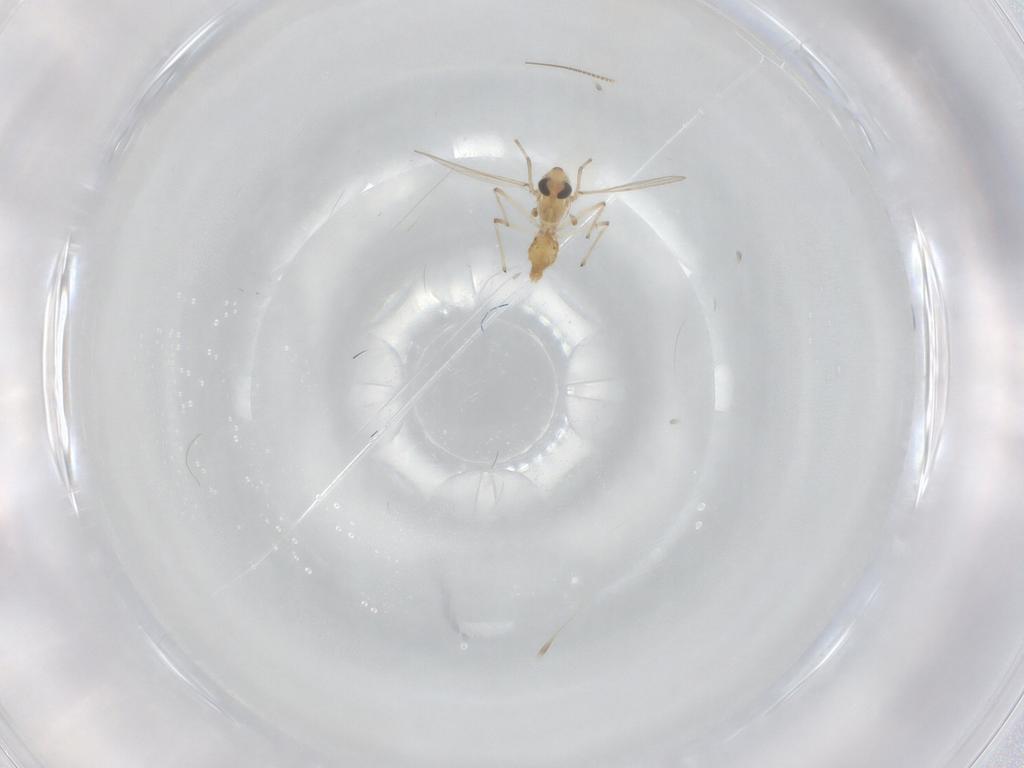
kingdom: Animalia
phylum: Arthropoda
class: Insecta
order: Diptera
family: Chironomidae
